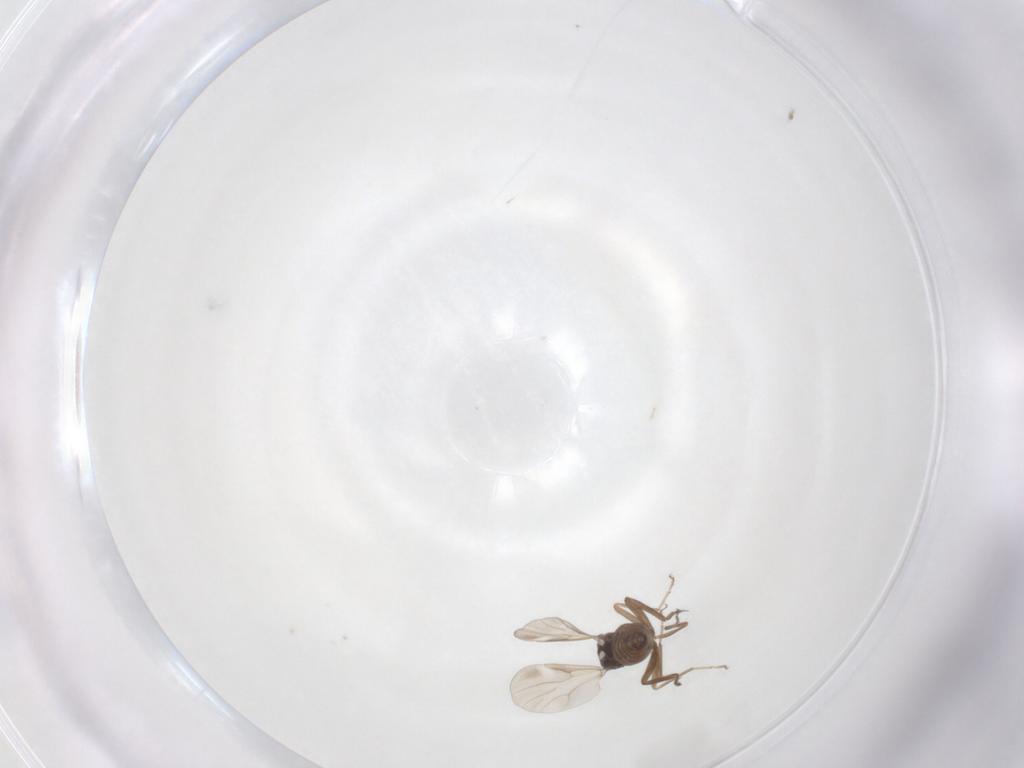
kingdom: Animalia
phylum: Arthropoda
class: Insecta
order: Diptera
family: Ceratopogonidae
